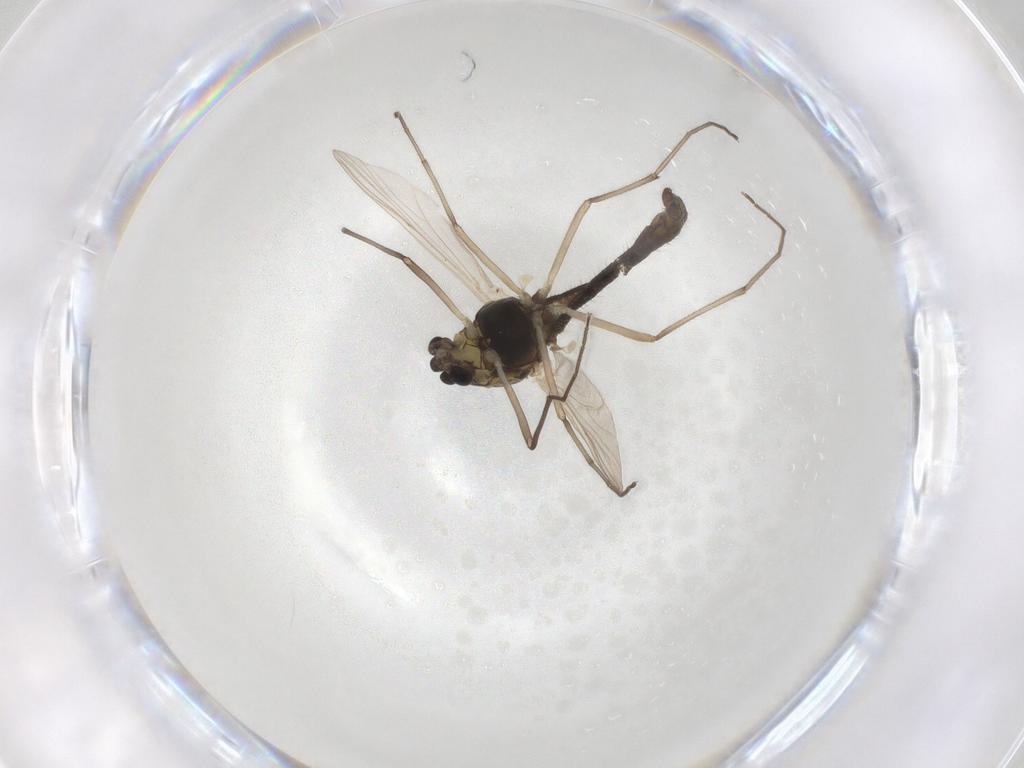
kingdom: Animalia
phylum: Arthropoda
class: Insecta
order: Diptera
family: Chironomidae
